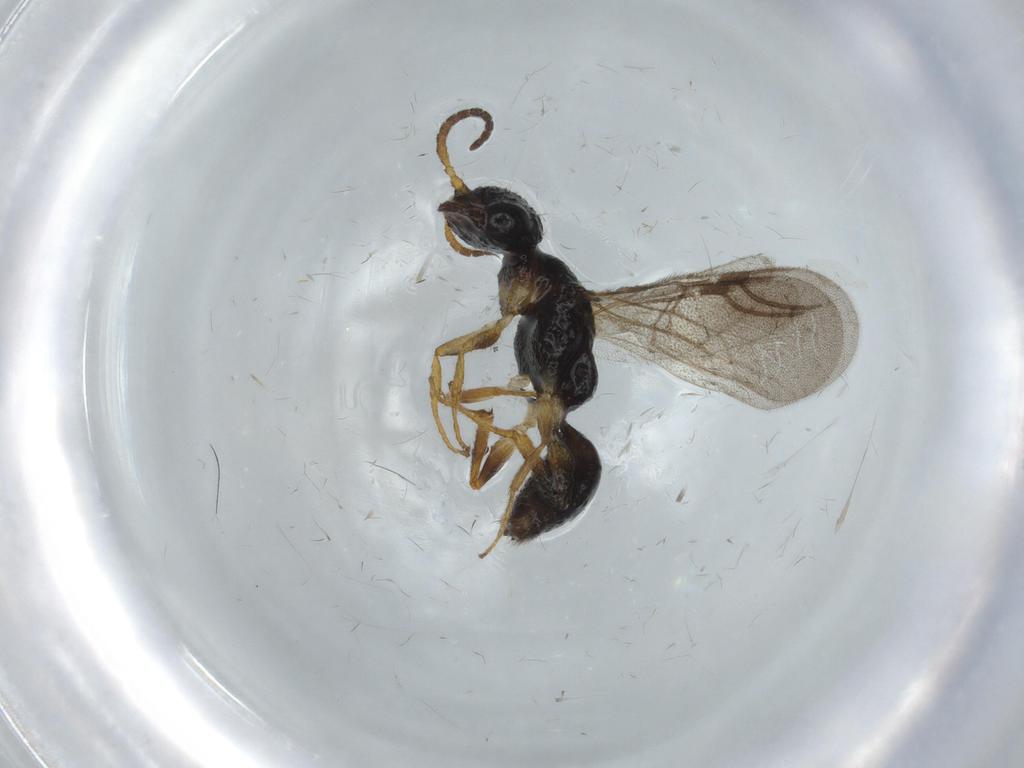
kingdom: Animalia
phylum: Arthropoda
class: Insecta
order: Hymenoptera
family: Bethylidae
